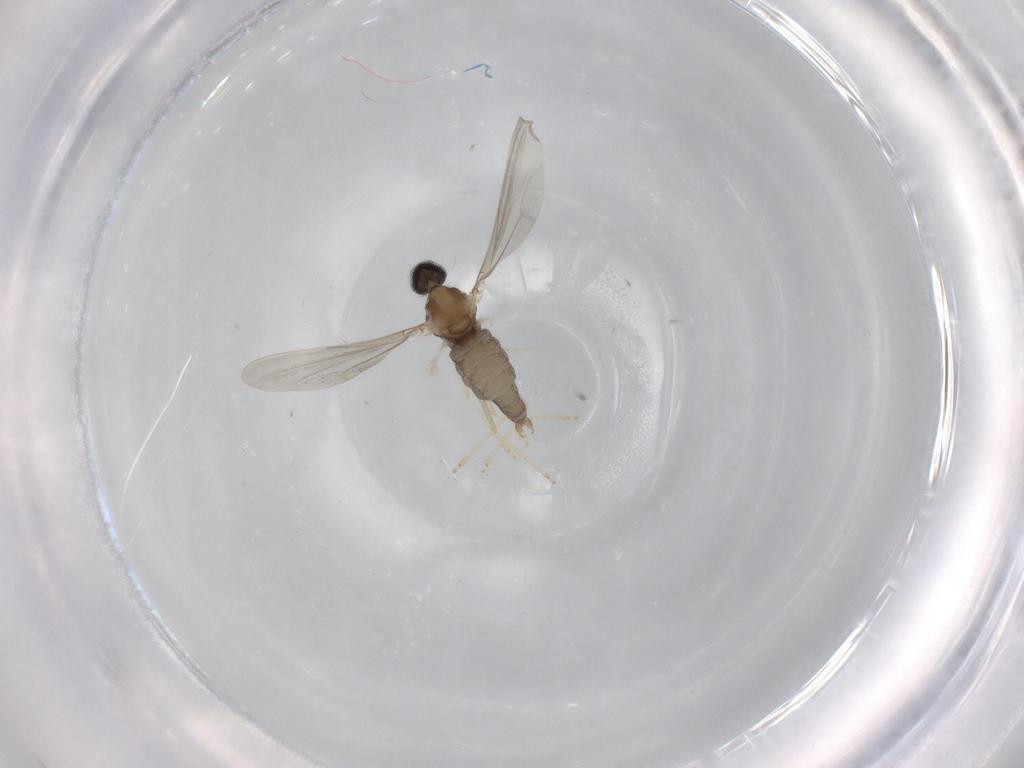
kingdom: Animalia
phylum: Arthropoda
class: Insecta
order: Diptera
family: Cecidomyiidae
